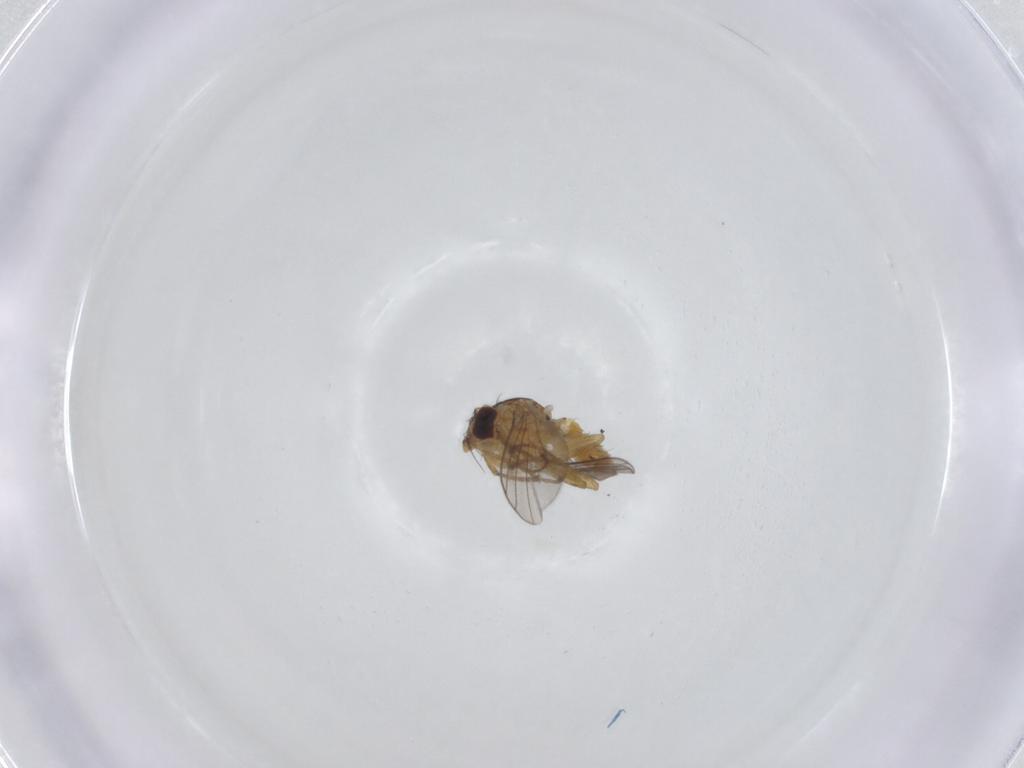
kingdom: Animalia
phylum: Arthropoda
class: Insecta
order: Diptera
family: Agromyzidae
